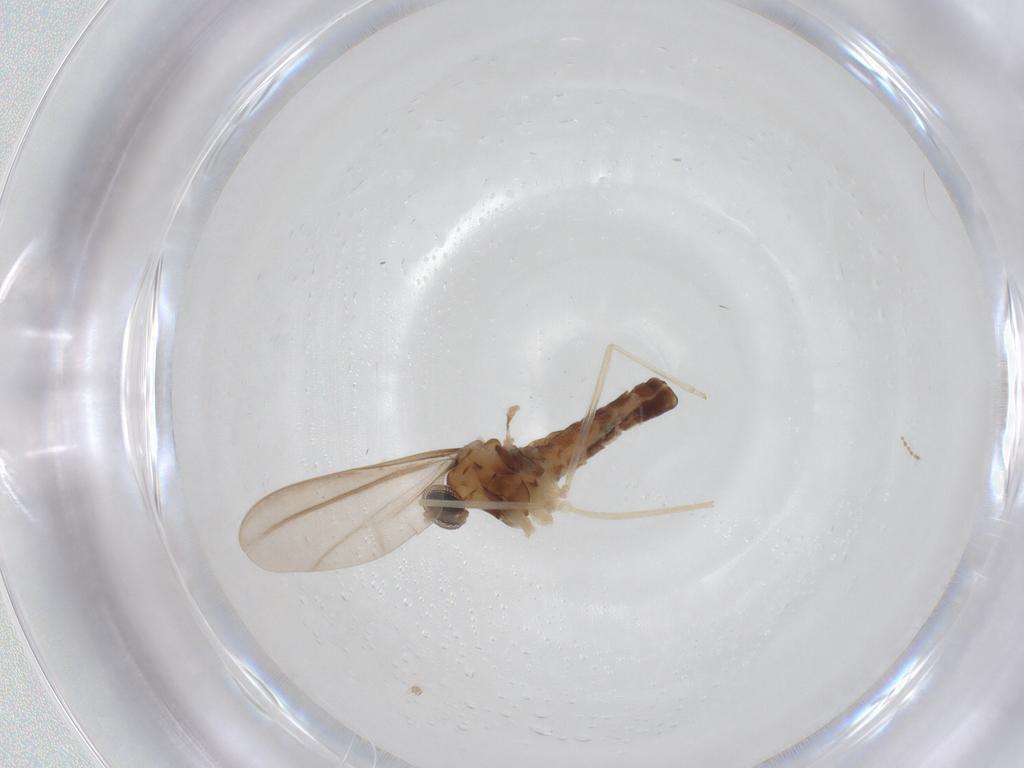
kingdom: Animalia
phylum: Arthropoda
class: Insecta
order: Diptera
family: Cecidomyiidae
